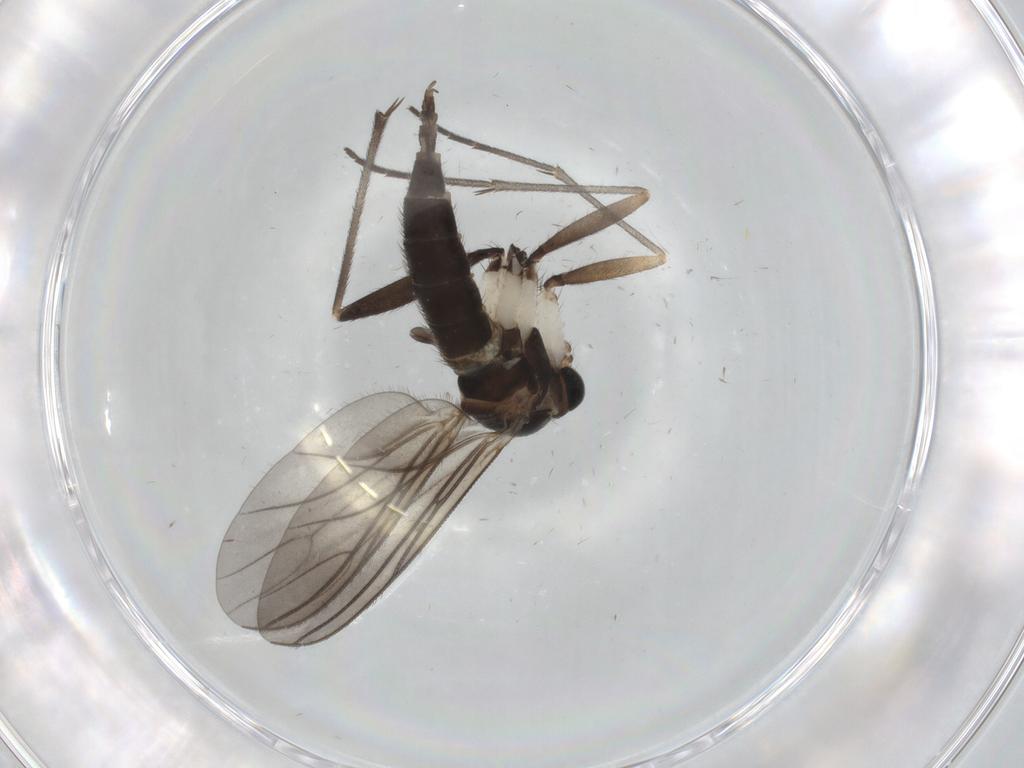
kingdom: Animalia
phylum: Arthropoda
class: Insecta
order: Diptera
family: Sciaridae
